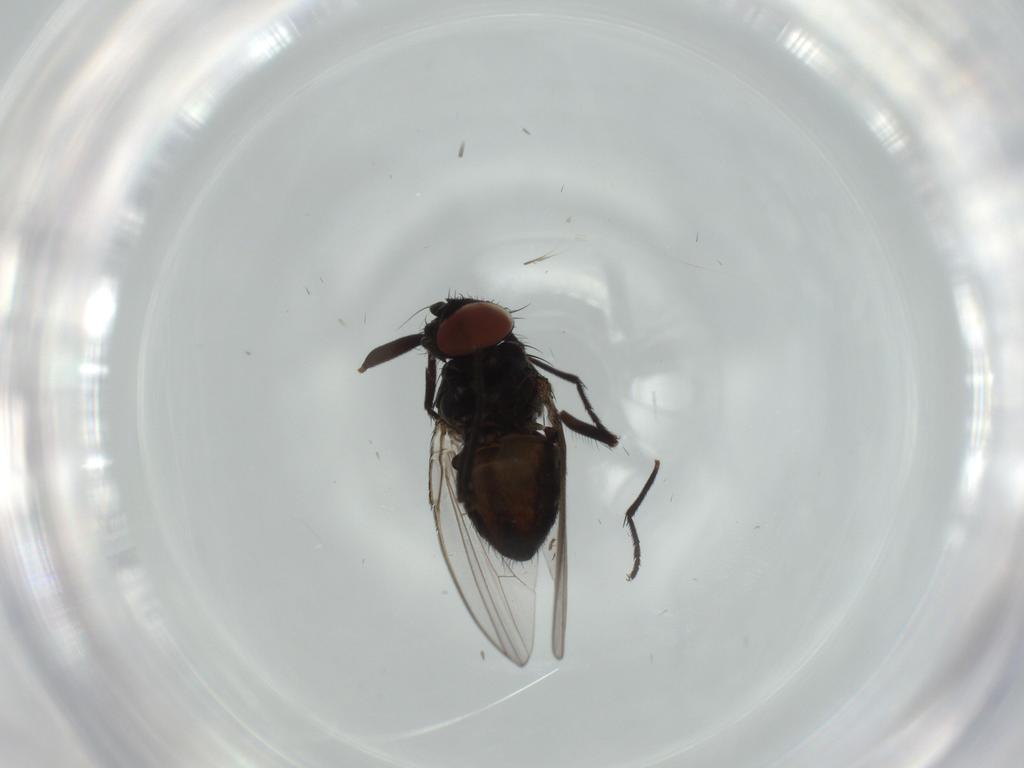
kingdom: Animalia
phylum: Arthropoda
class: Insecta
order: Diptera
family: Milichiidae
